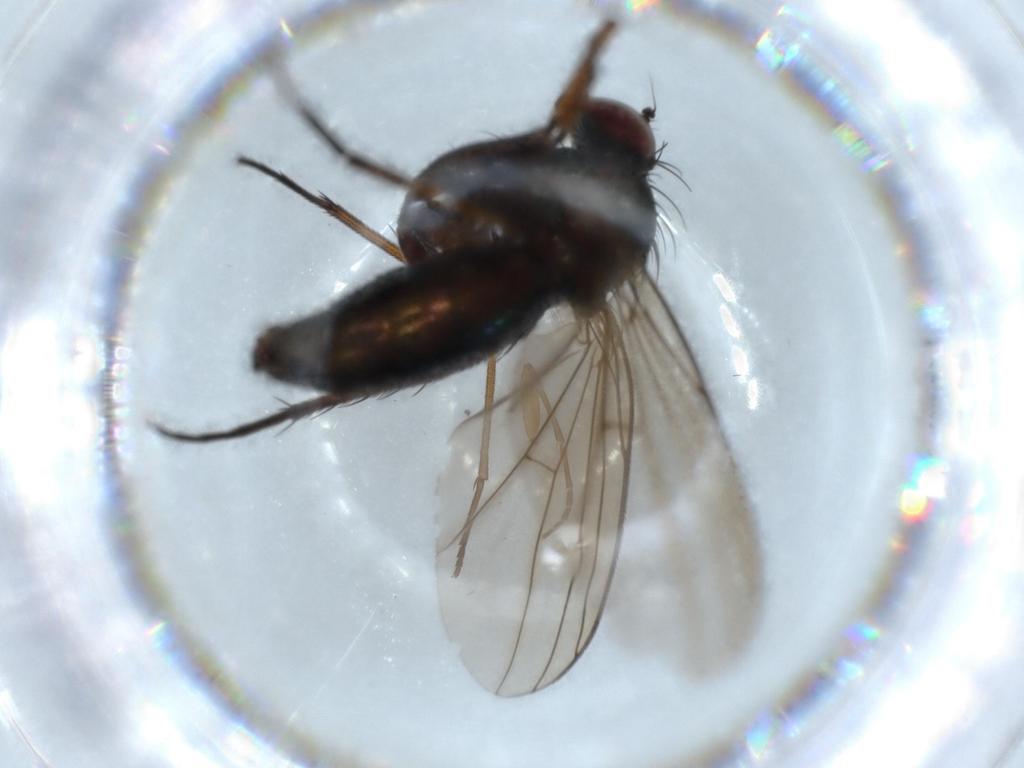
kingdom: Animalia
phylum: Arthropoda
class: Insecta
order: Diptera
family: Dolichopodidae
